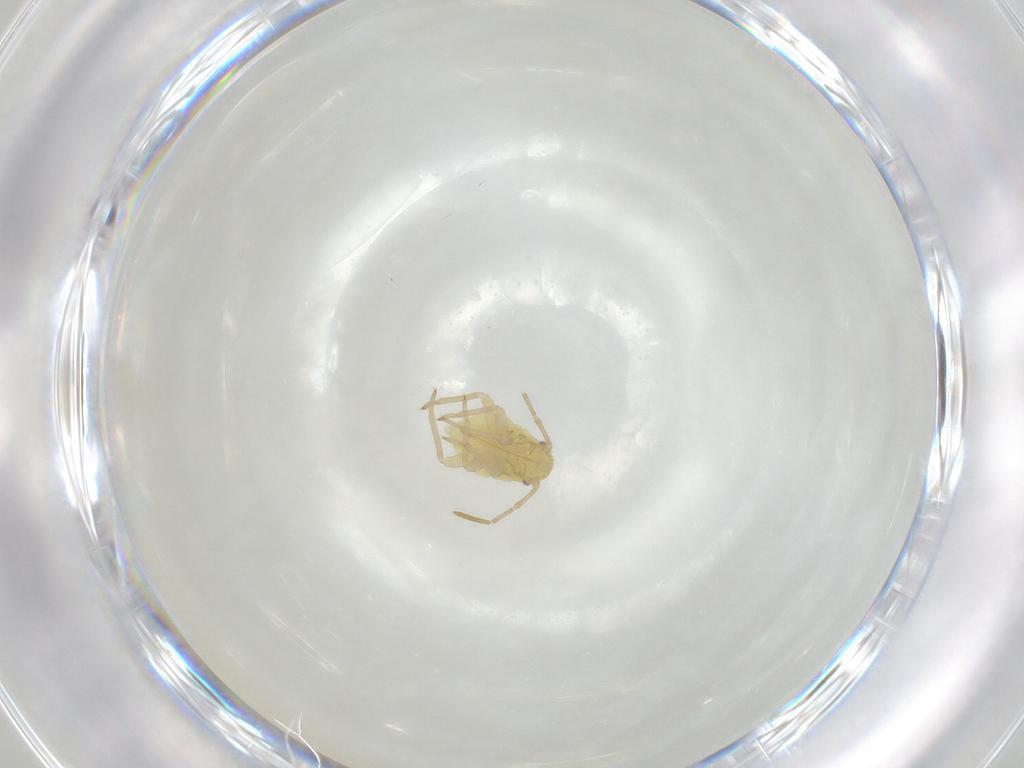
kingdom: Animalia
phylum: Arthropoda
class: Insecta
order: Hemiptera
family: Miridae
